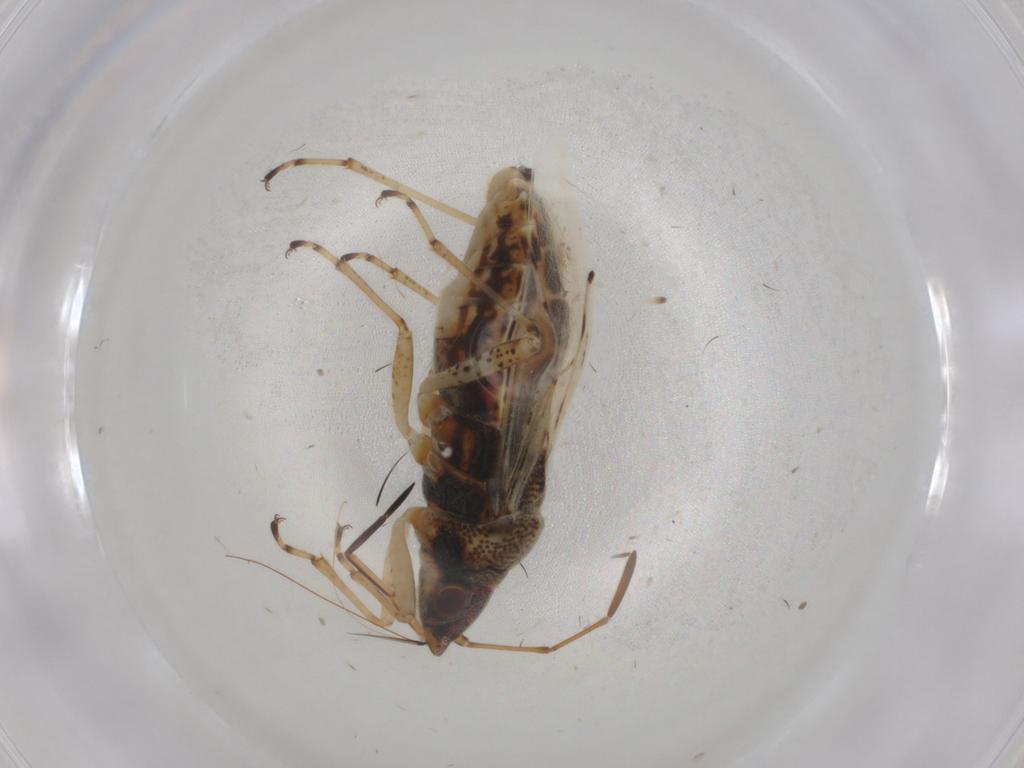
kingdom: Animalia
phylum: Arthropoda
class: Insecta
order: Hemiptera
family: Lygaeidae
